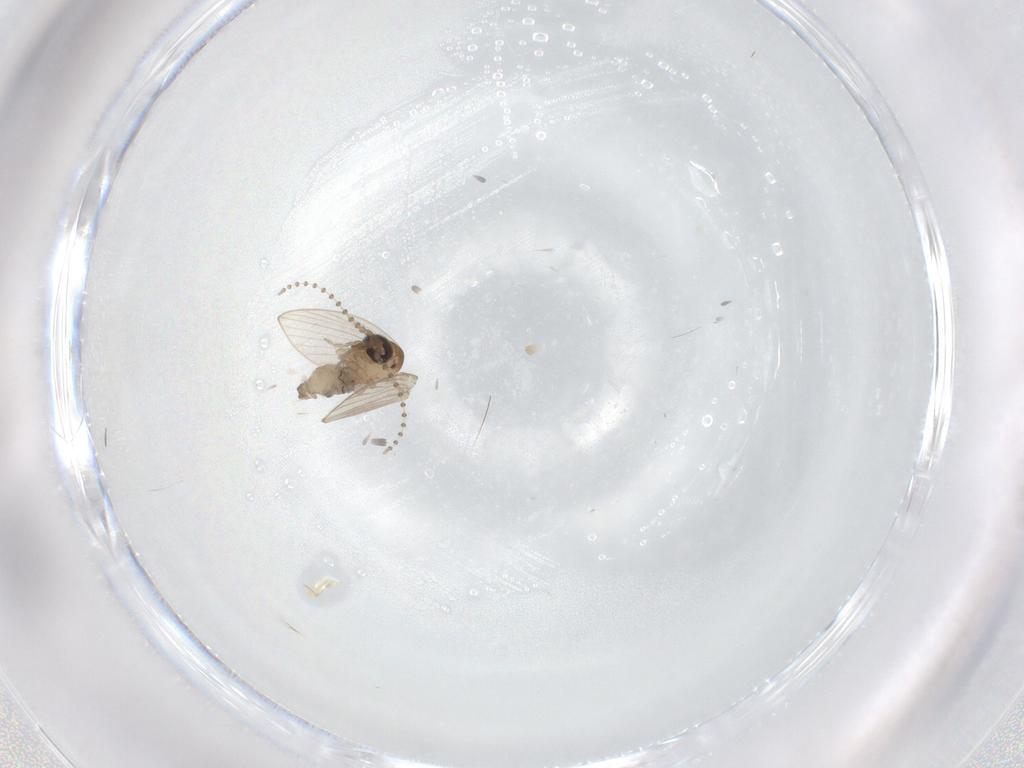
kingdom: Animalia
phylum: Arthropoda
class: Insecta
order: Diptera
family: Psychodidae
